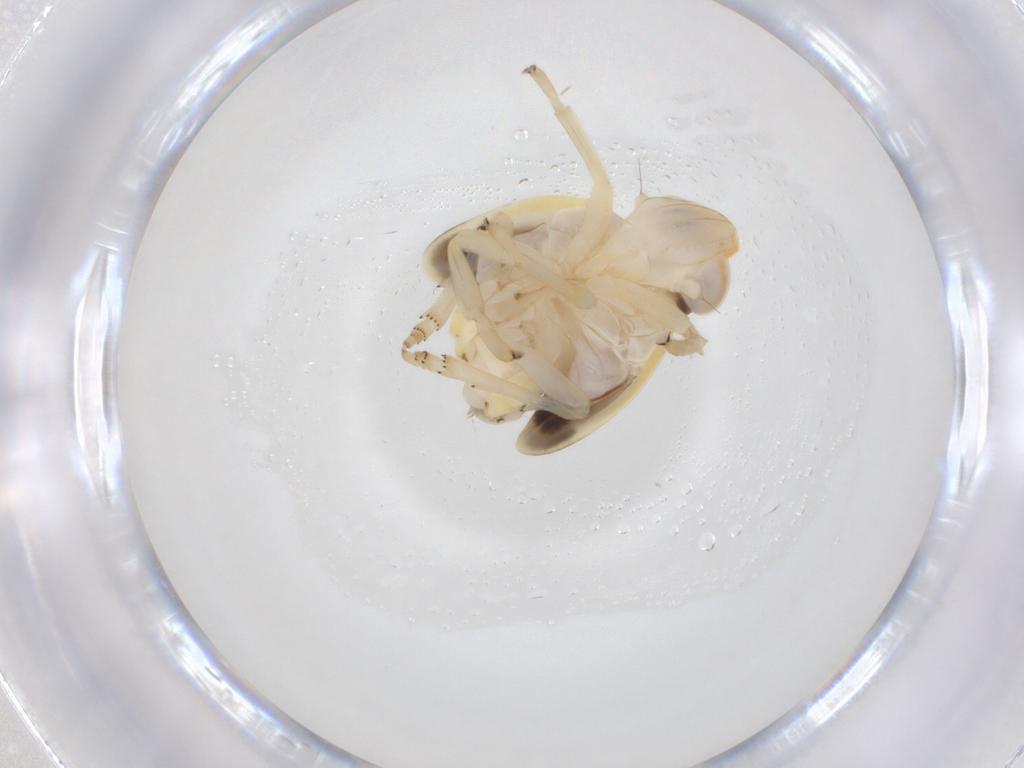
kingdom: Animalia
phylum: Arthropoda
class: Insecta
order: Hemiptera
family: Nogodinidae
